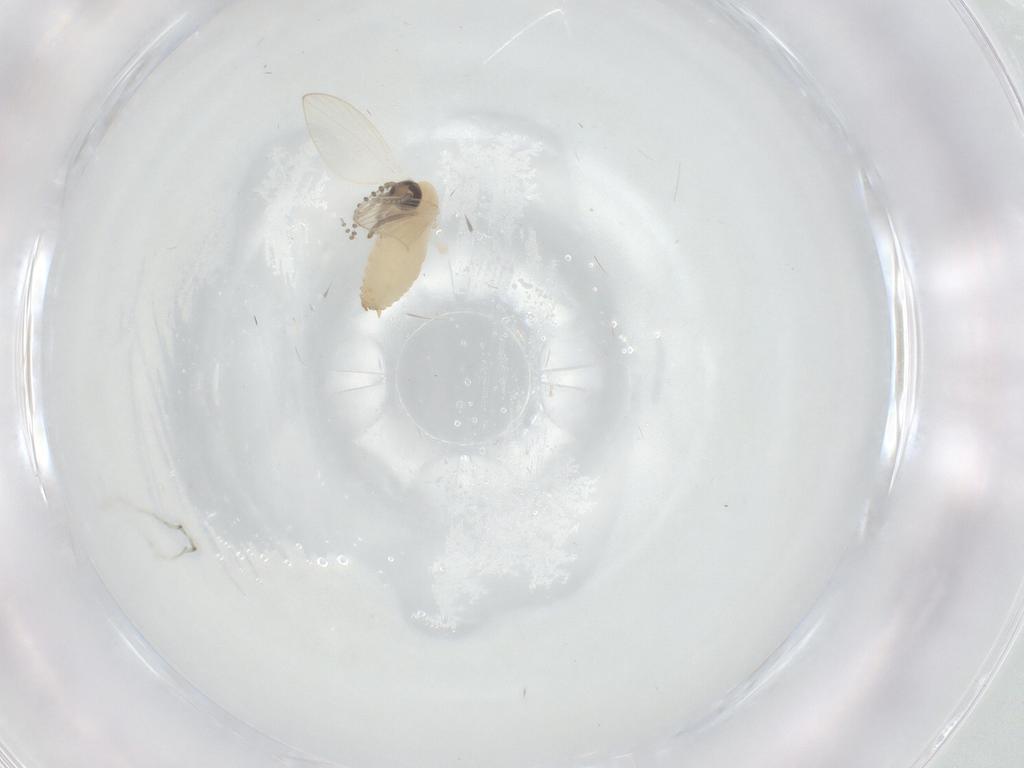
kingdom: Animalia
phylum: Arthropoda
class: Insecta
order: Diptera
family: Psychodidae
